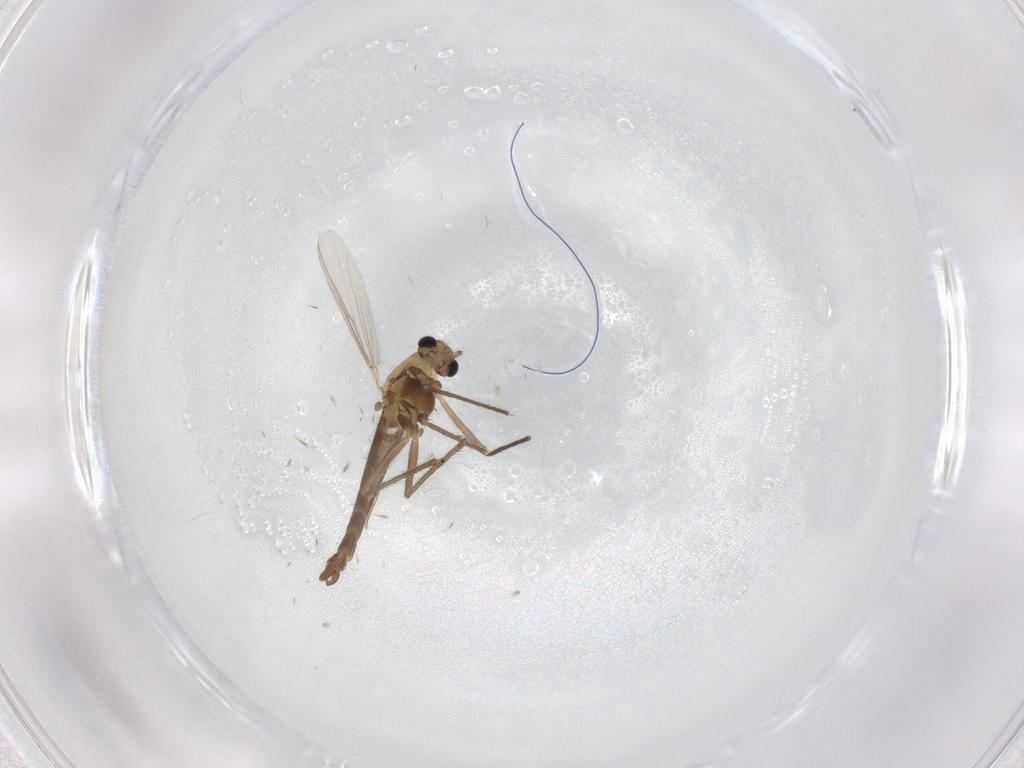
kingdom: Animalia
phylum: Arthropoda
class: Insecta
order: Diptera
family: Chironomidae
